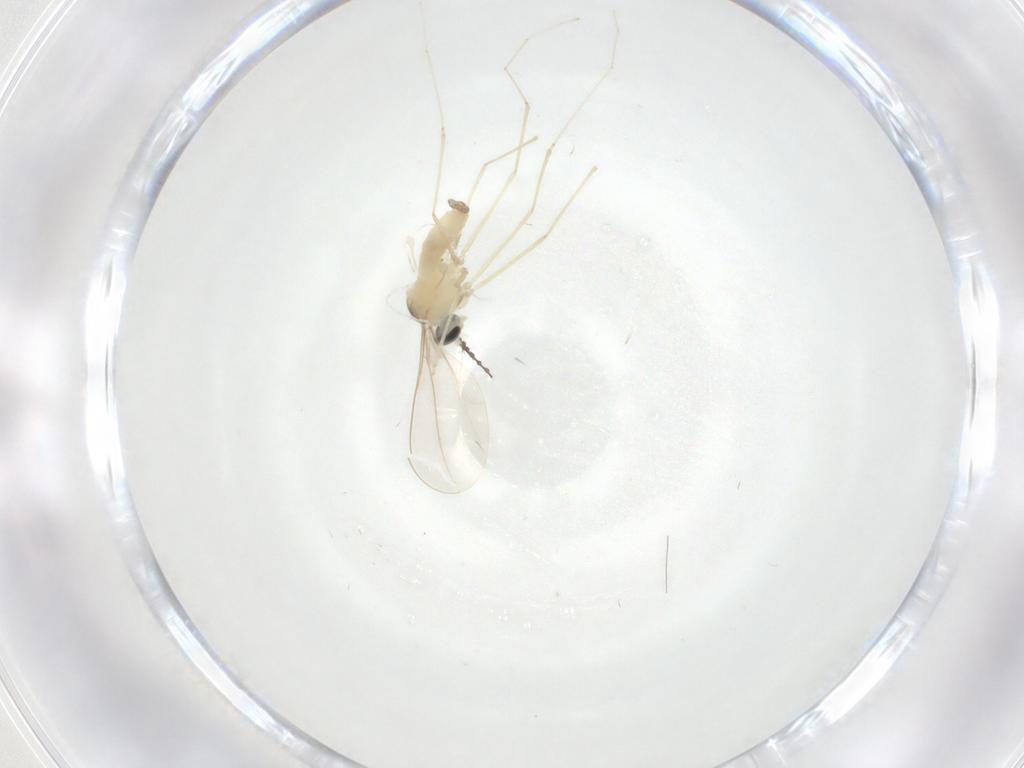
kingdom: Animalia
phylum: Arthropoda
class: Insecta
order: Diptera
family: Cecidomyiidae
